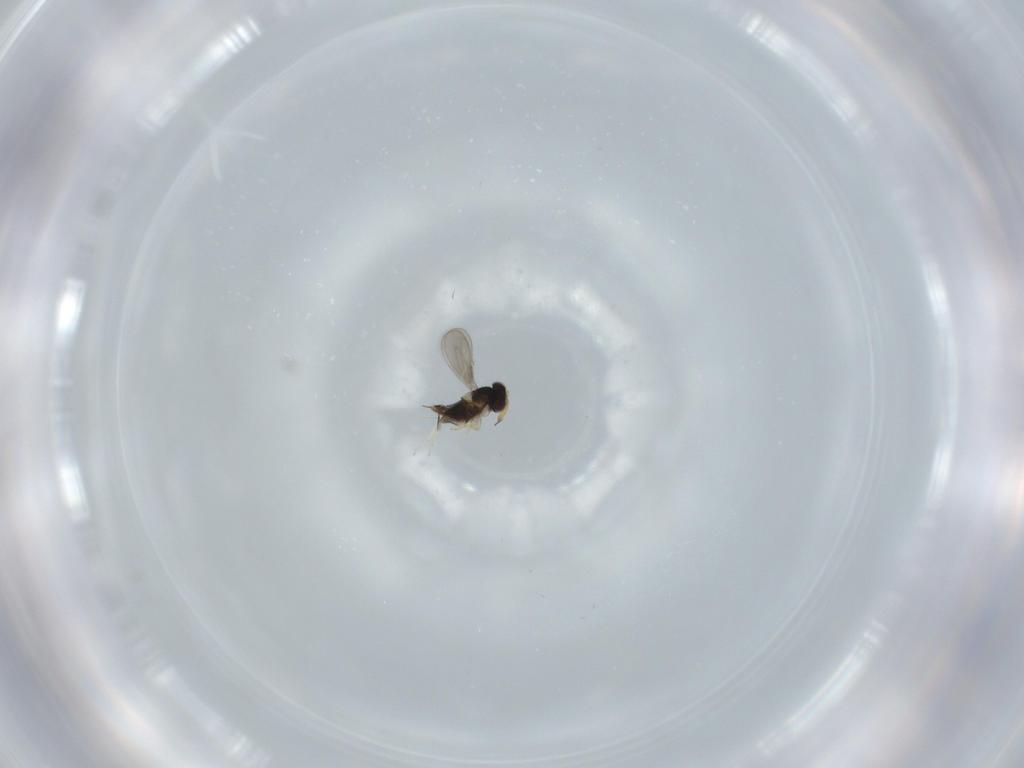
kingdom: Animalia
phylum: Arthropoda
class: Insecta
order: Hymenoptera
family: Aphelinidae
